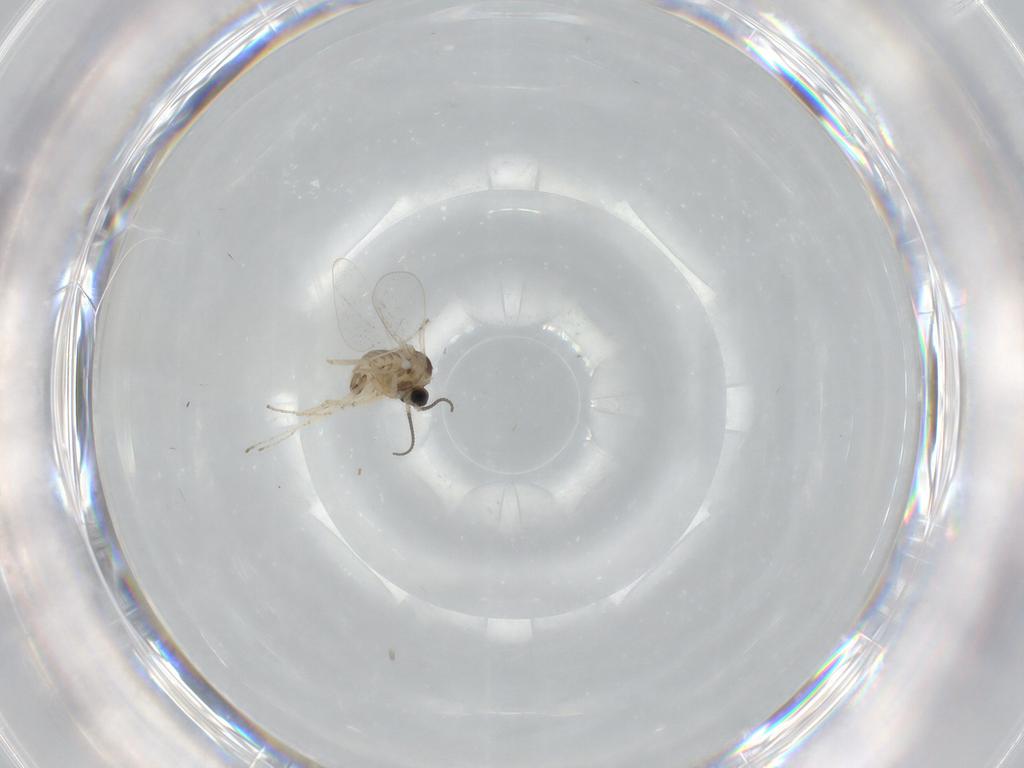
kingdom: Animalia
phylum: Arthropoda
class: Insecta
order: Diptera
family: Cecidomyiidae
